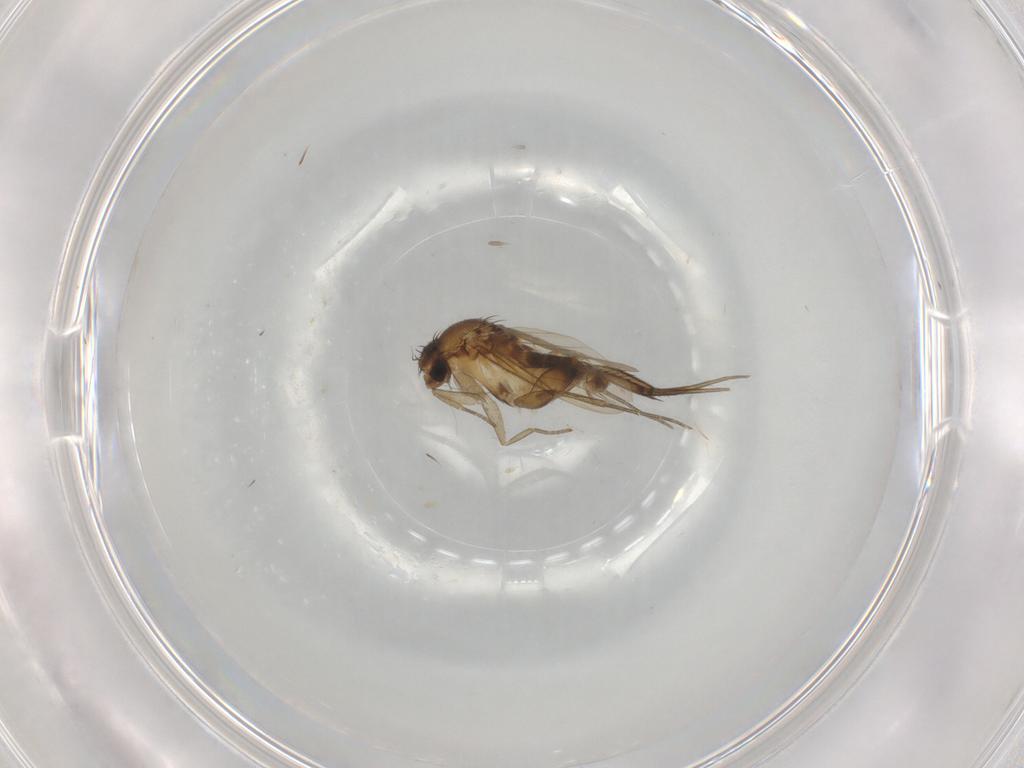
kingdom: Animalia
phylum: Arthropoda
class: Insecta
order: Diptera
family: Phoridae
